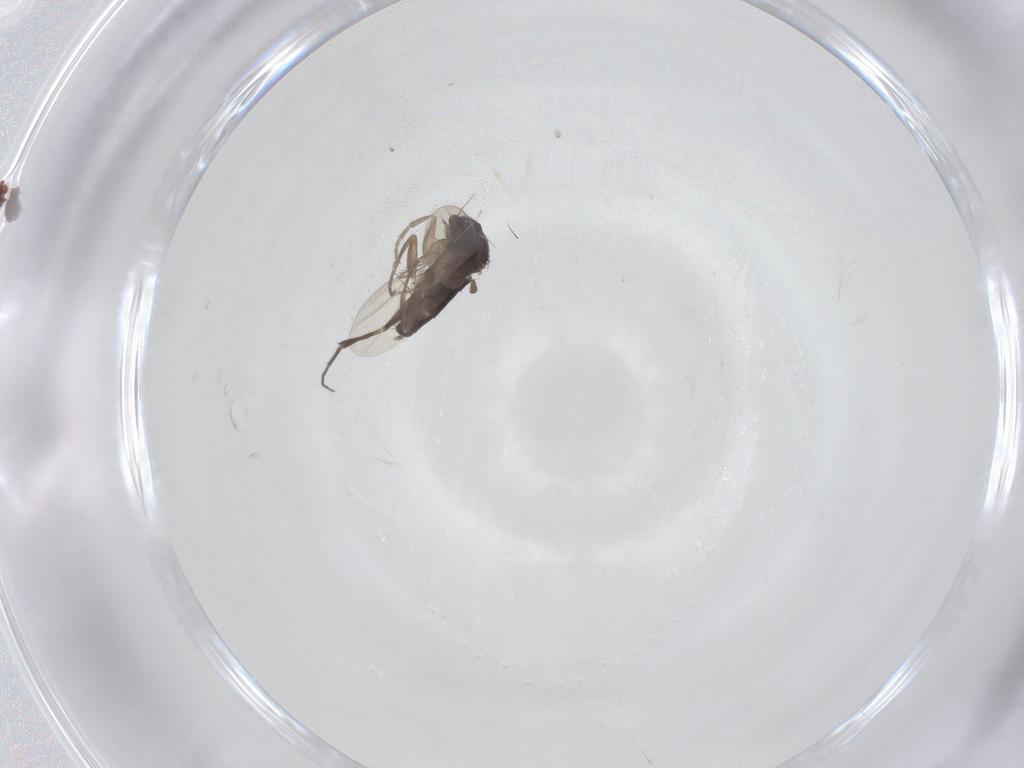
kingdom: Animalia
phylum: Arthropoda
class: Insecta
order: Diptera
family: Phoridae
